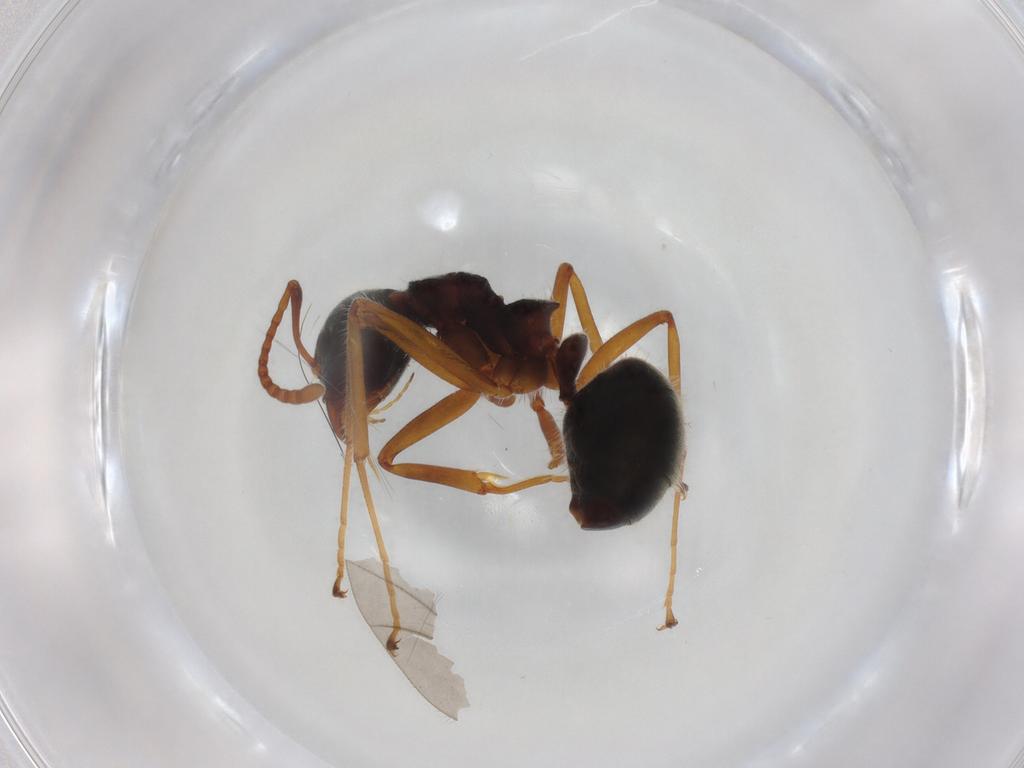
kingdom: Animalia
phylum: Arthropoda
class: Insecta
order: Hymenoptera
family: Formicidae
